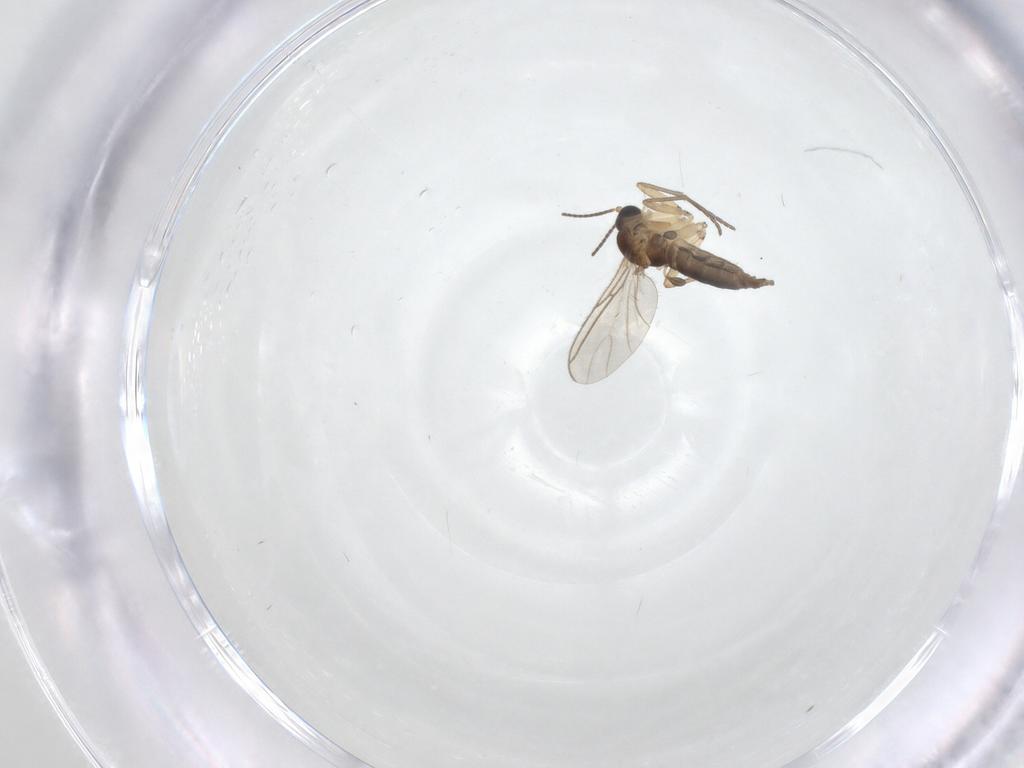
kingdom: Animalia
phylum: Arthropoda
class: Insecta
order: Diptera
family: Sciaridae
